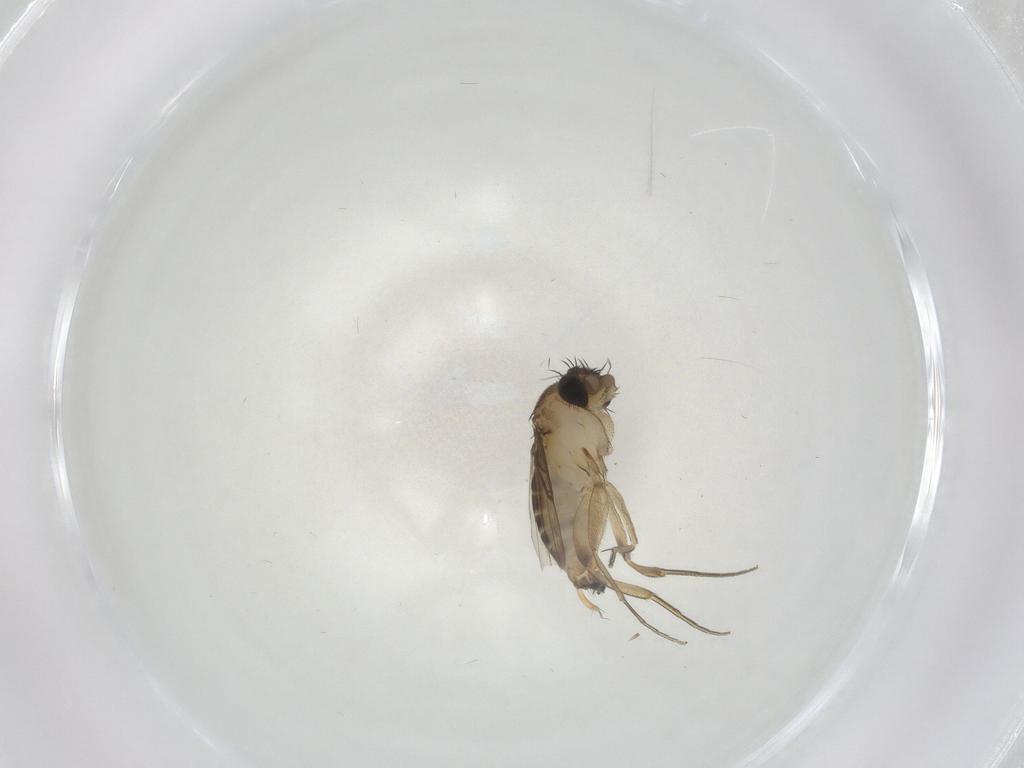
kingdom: Animalia
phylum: Arthropoda
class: Insecta
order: Diptera
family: Phoridae
